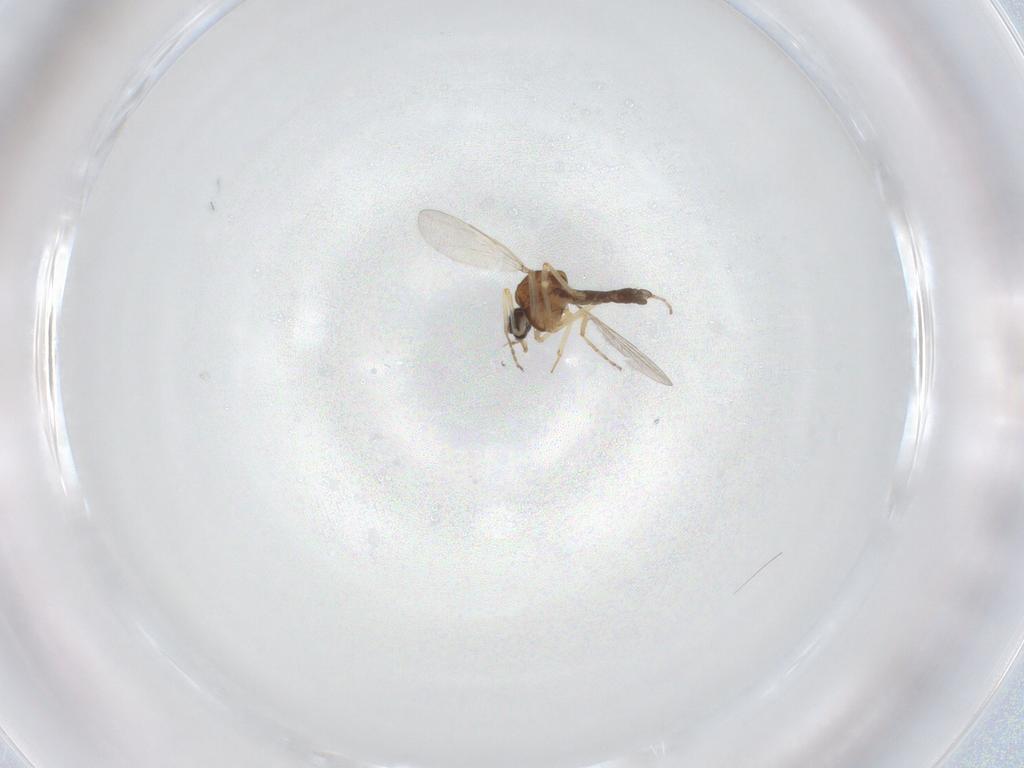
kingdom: Animalia
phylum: Arthropoda
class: Insecta
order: Diptera
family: Ceratopogonidae
